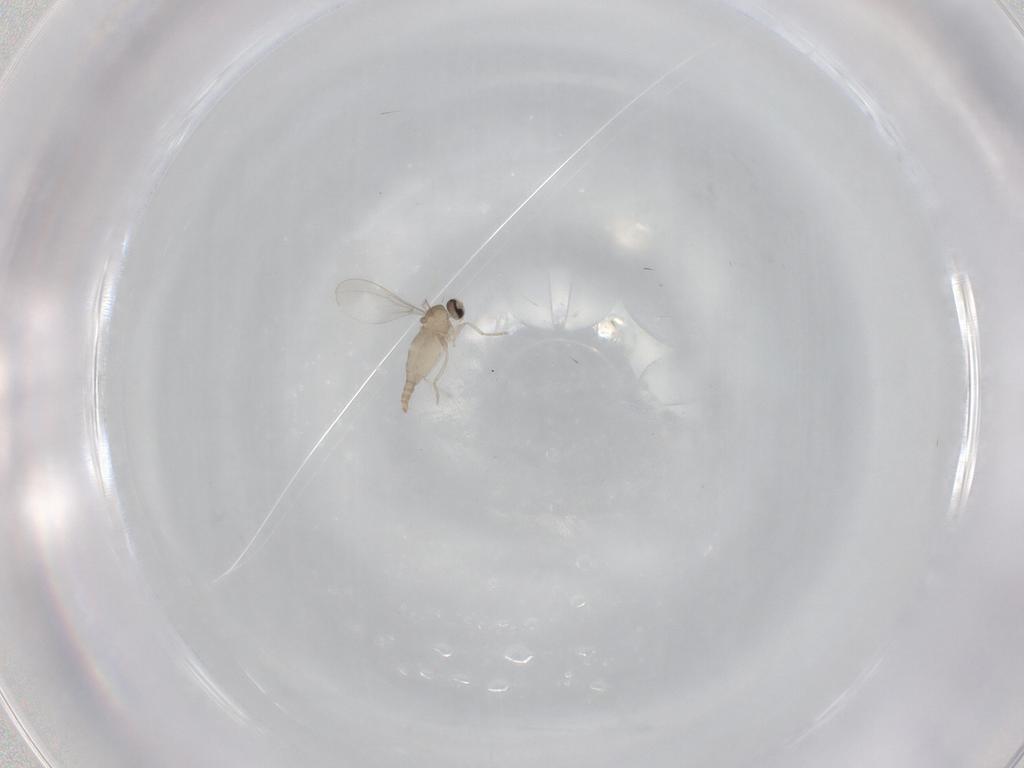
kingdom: Animalia
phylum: Arthropoda
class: Insecta
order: Diptera
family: Cecidomyiidae
